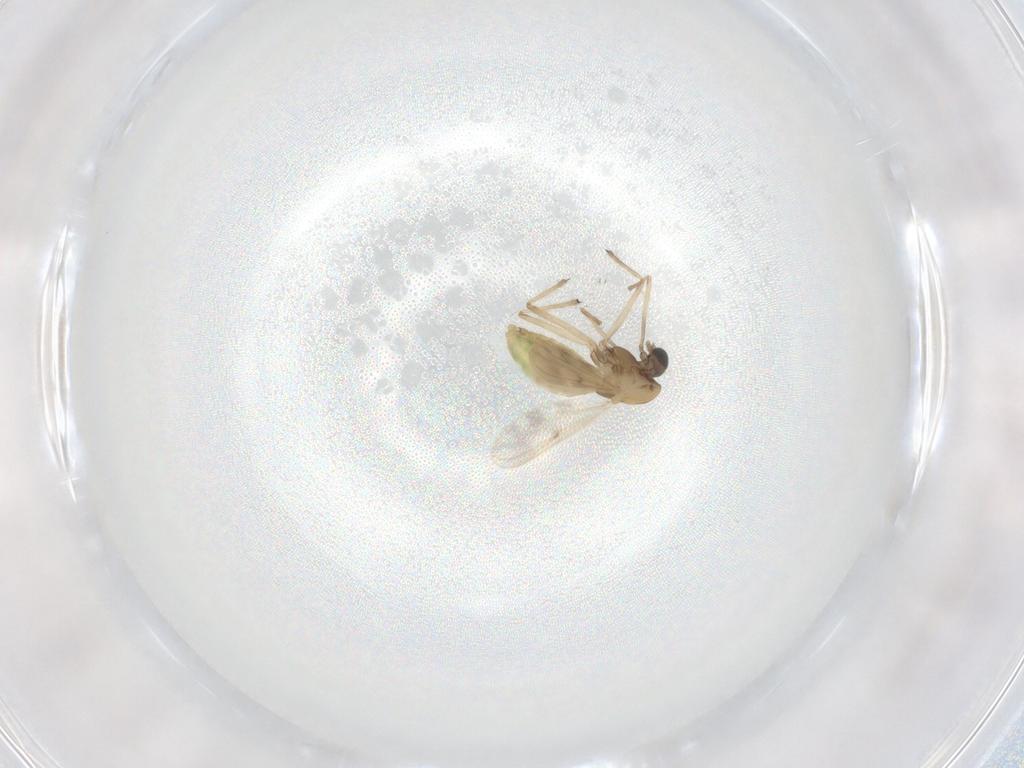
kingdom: Animalia
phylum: Arthropoda
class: Insecta
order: Diptera
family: Chironomidae
